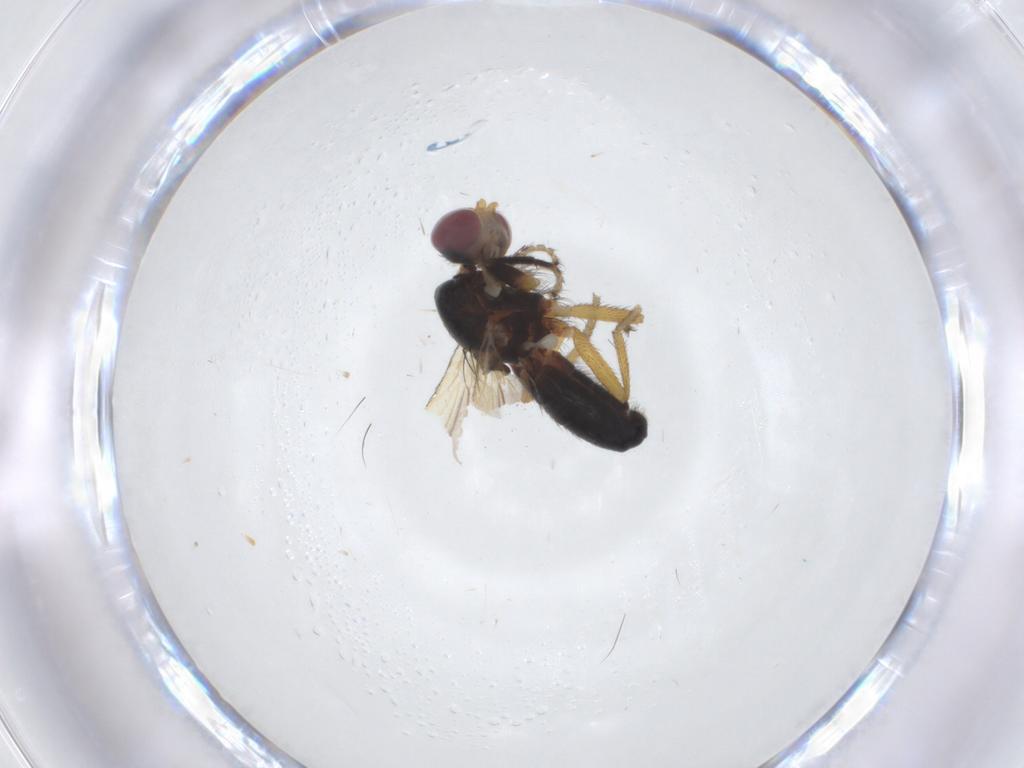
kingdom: Animalia
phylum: Arthropoda
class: Insecta
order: Diptera
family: Heleomyzidae
